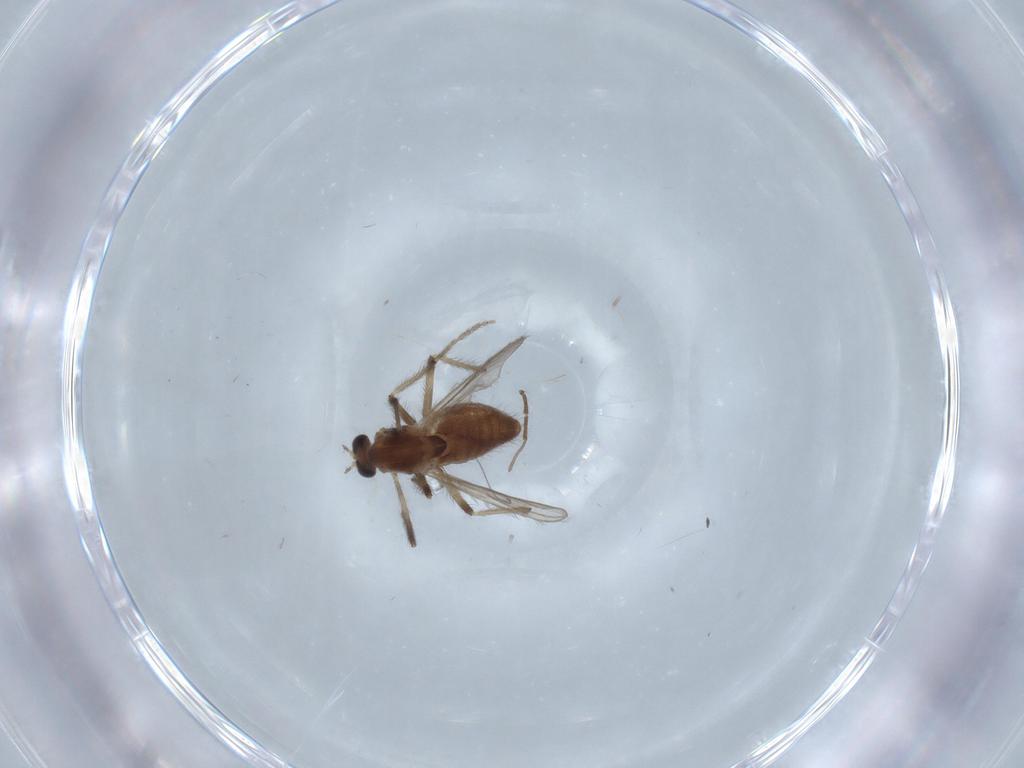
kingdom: Animalia
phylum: Arthropoda
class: Insecta
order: Diptera
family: Chironomidae
